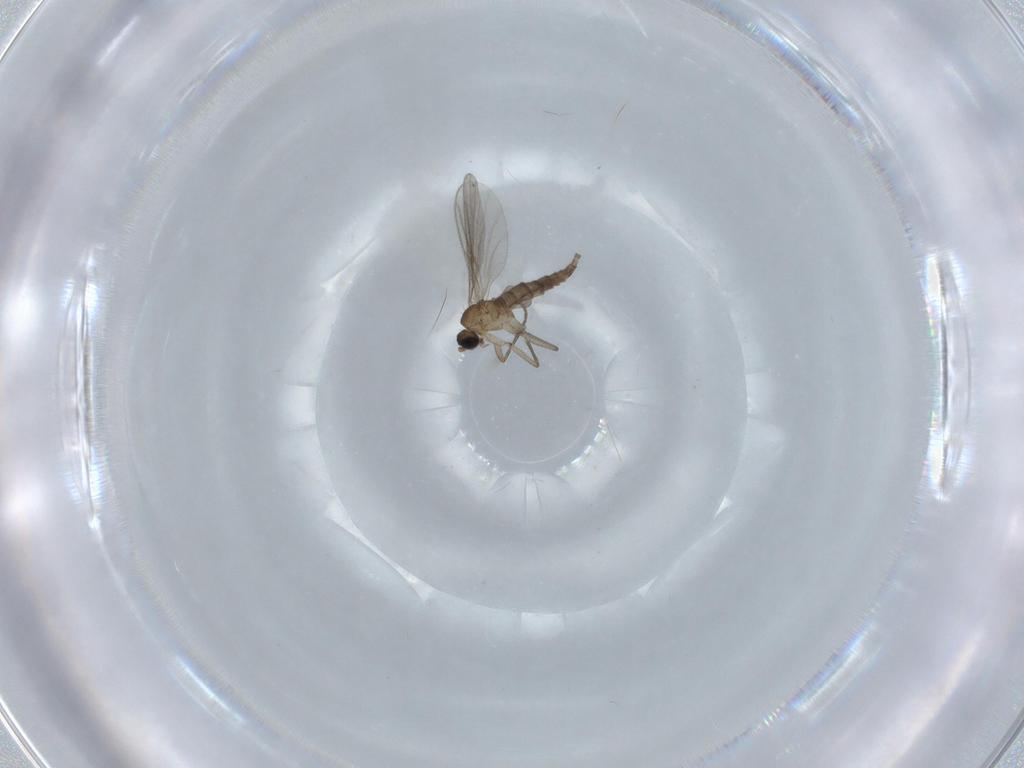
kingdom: Animalia
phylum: Arthropoda
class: Insecta
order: Diptera
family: Sciaridae
